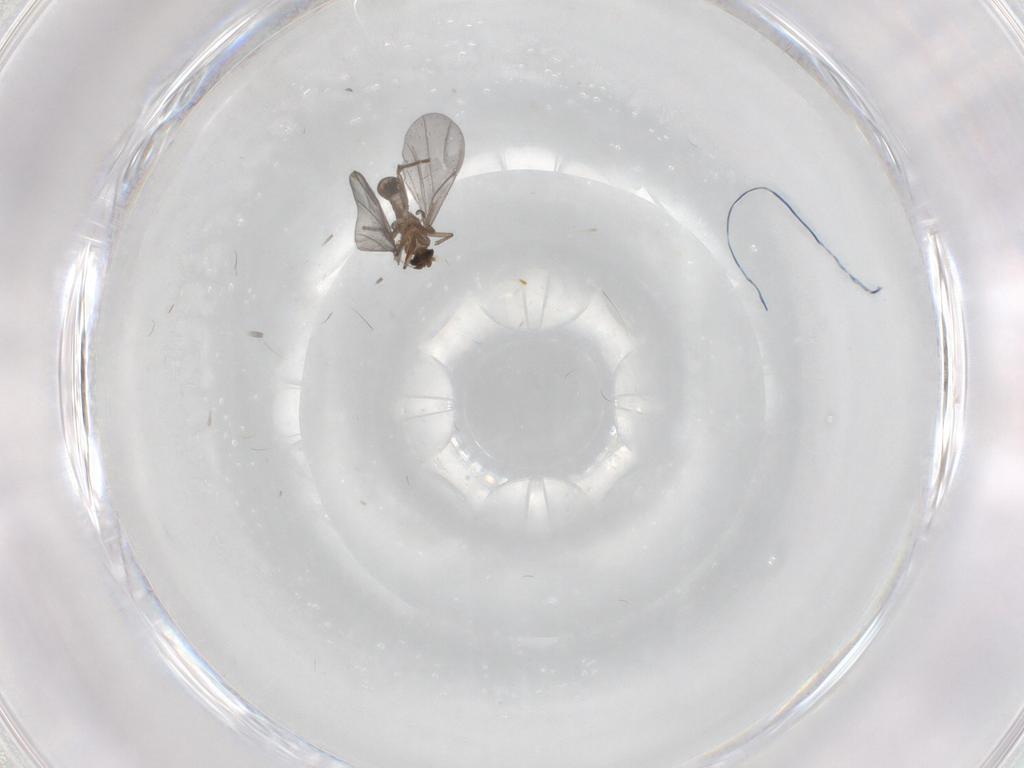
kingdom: Animalia
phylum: Arthropoda
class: Insecta
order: Diptera
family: Phoridae
